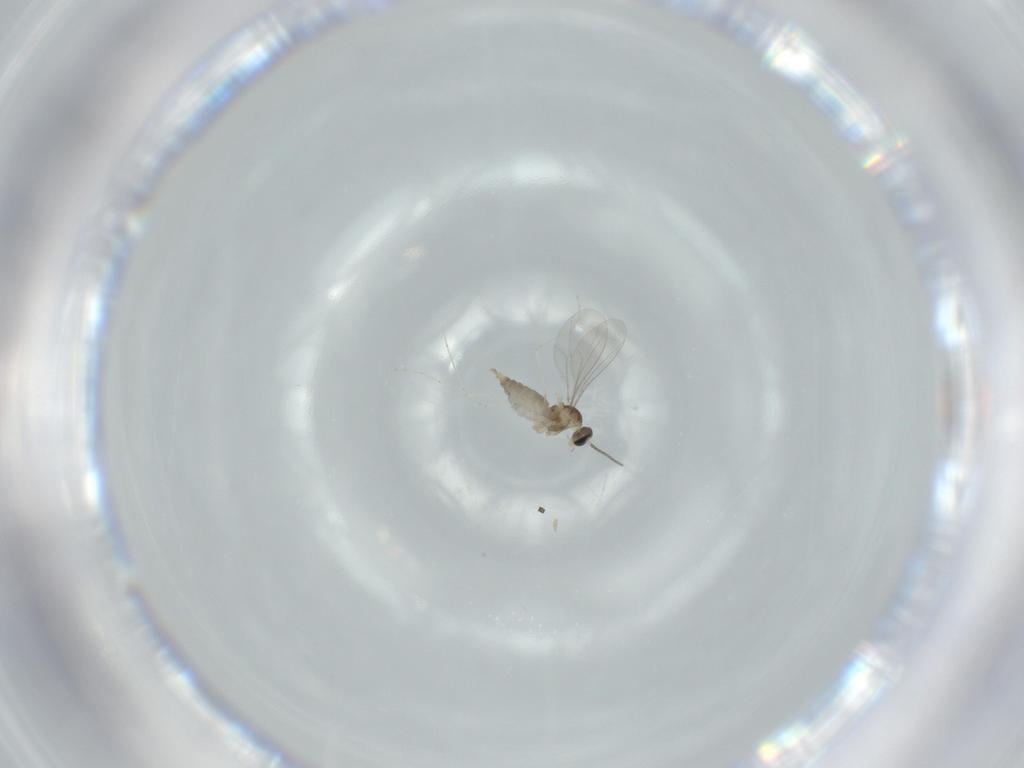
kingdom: Animalia
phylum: Arthropoda
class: Insecta
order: Diptera
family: Cecidomyiidae
